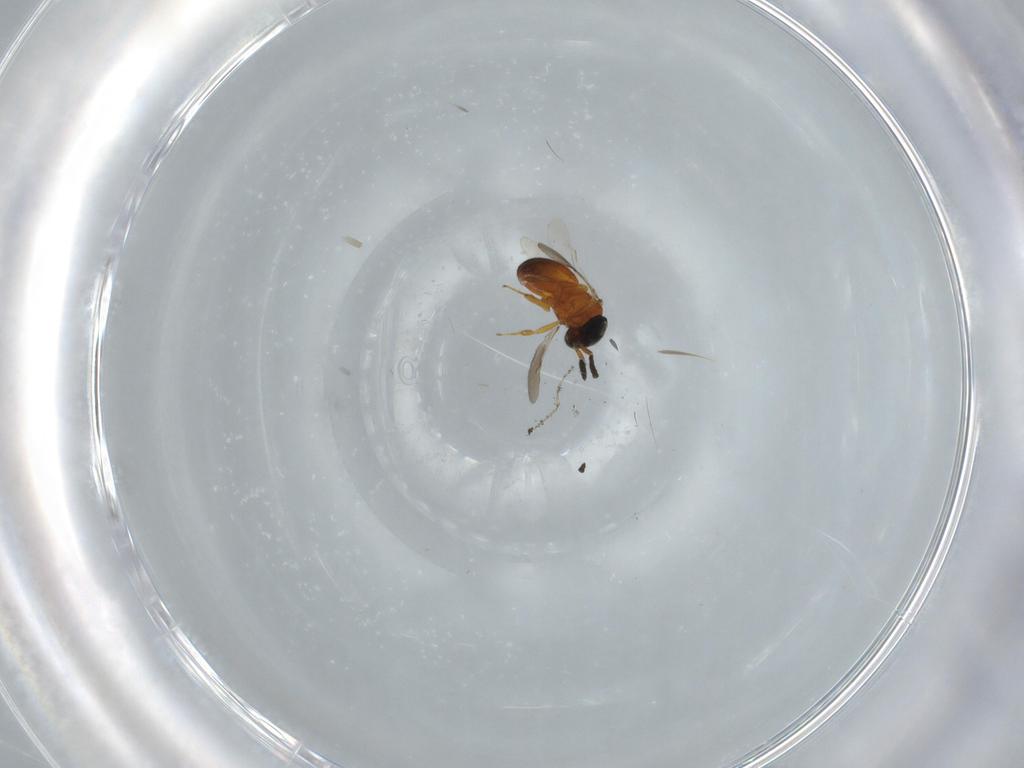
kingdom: Animalia
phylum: Arthropoda
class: Insecta
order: Hymenoptera
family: Scelionidae
